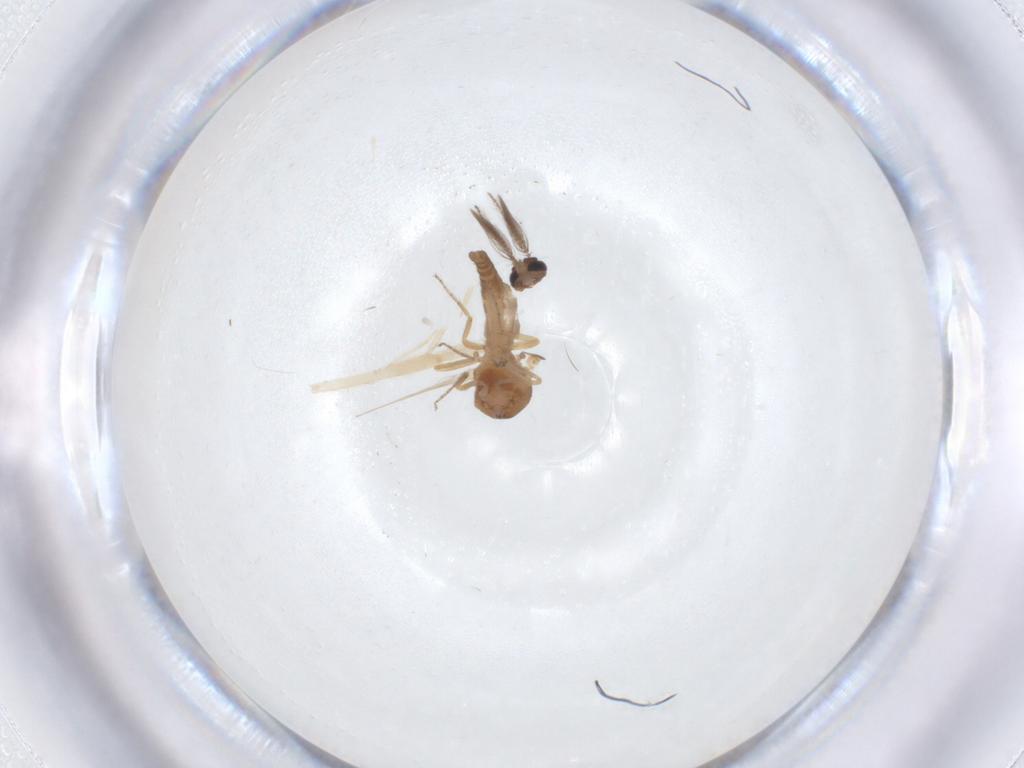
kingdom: Animalia
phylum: Arthropoda
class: Insecta
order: Diptera
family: Ceratopogonidae
